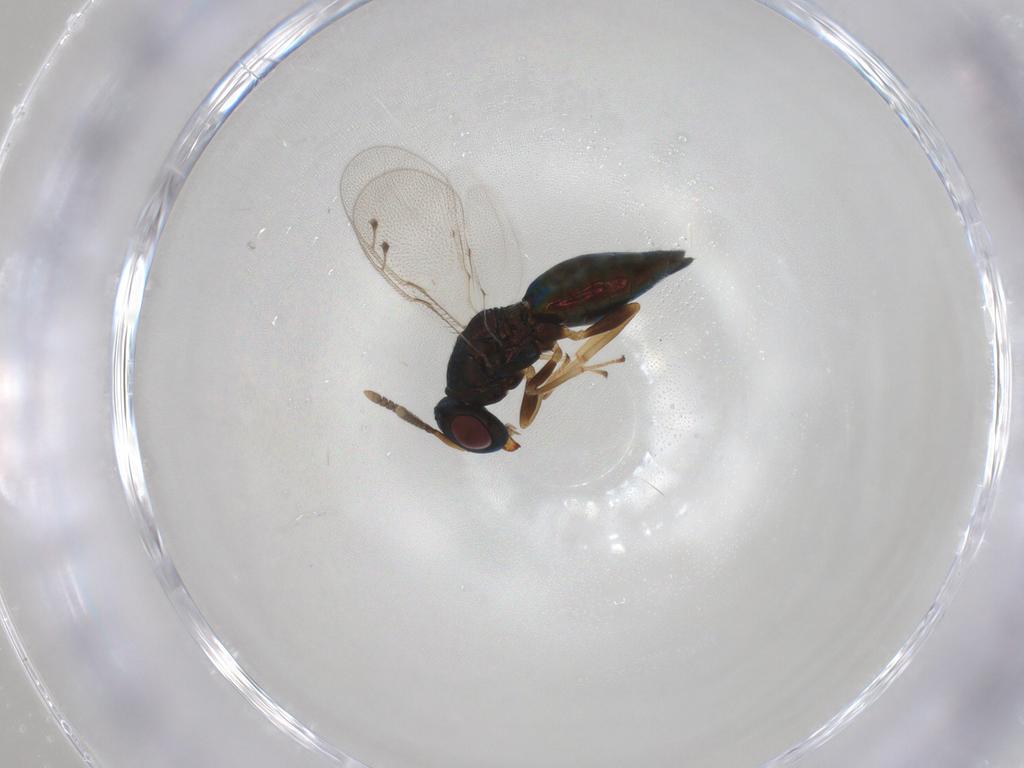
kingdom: Animalia
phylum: Arthropoda
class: Insecta
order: Hymenoptera
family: Pteromalidae
